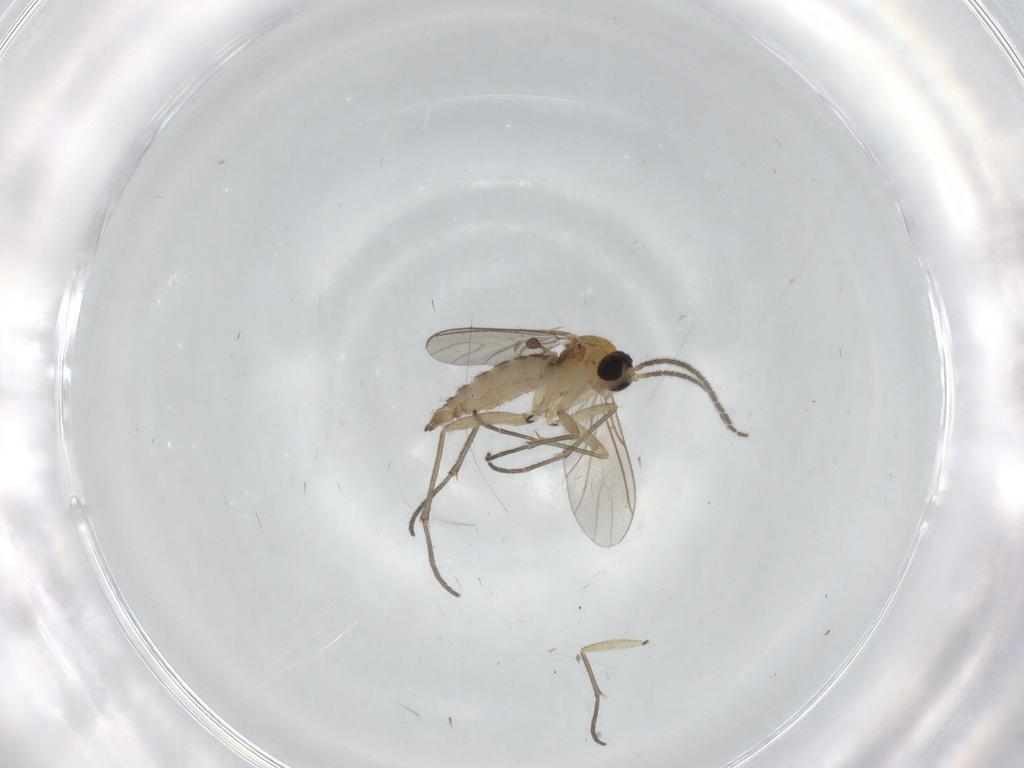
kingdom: Animalia
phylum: Arthropoda
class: Insecta
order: Diptera
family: Sciaridae
